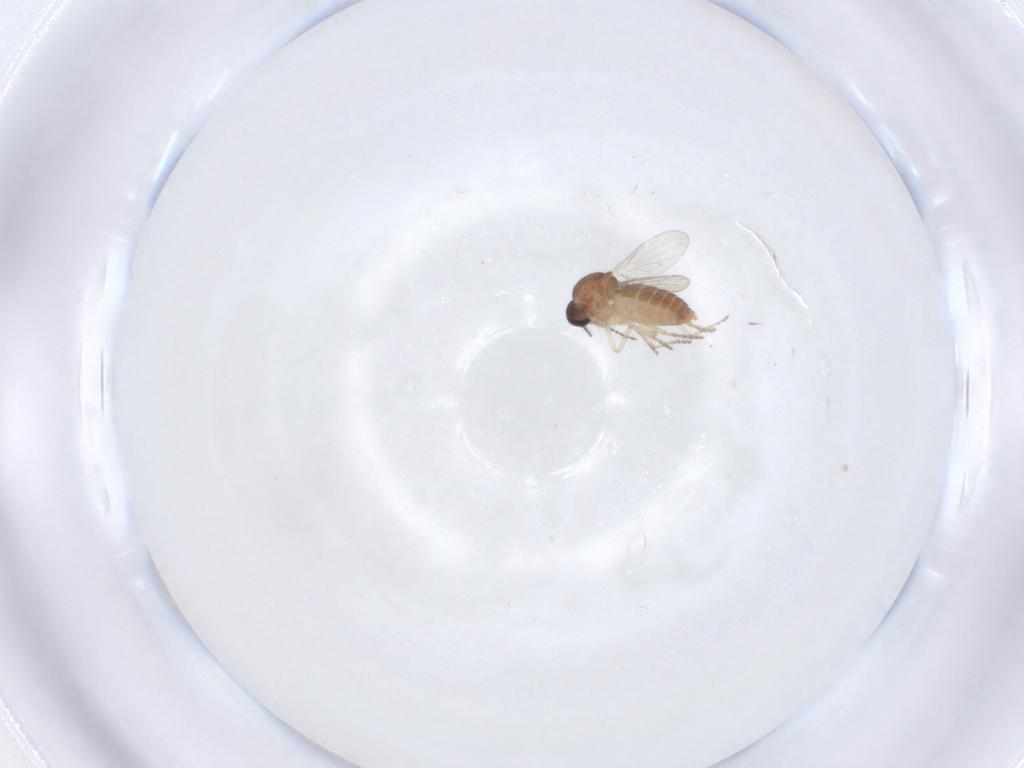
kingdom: Animalia
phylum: Arthropoda
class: Insecta
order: Diptera
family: Ceratopogonidae
